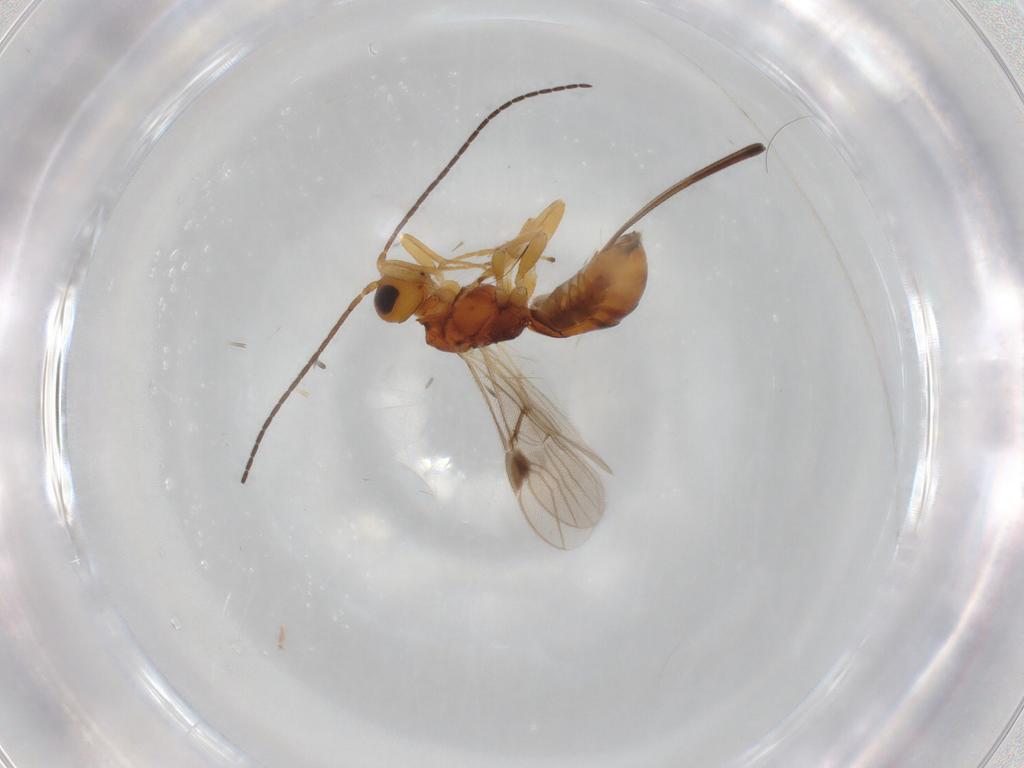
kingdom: Animalia
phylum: Arthropoda
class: Insecta
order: Hymenoptera
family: Braconidae
